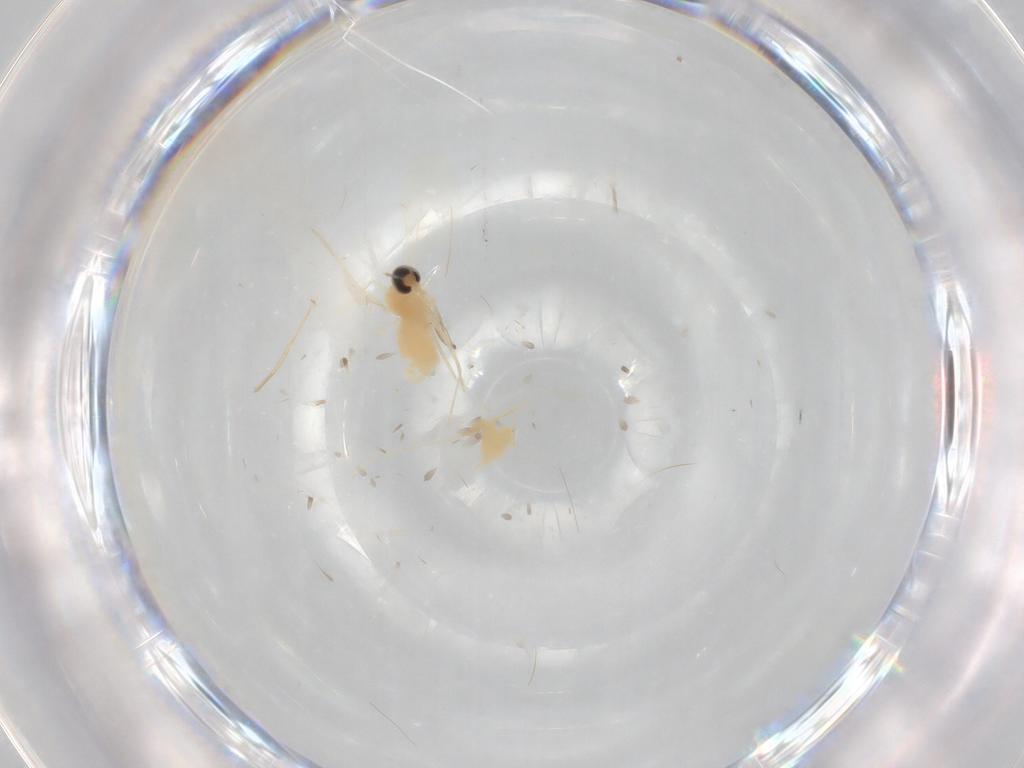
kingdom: Animalia
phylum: Arthropoda
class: Insecta
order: Diptera
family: Cecidomyiidae
